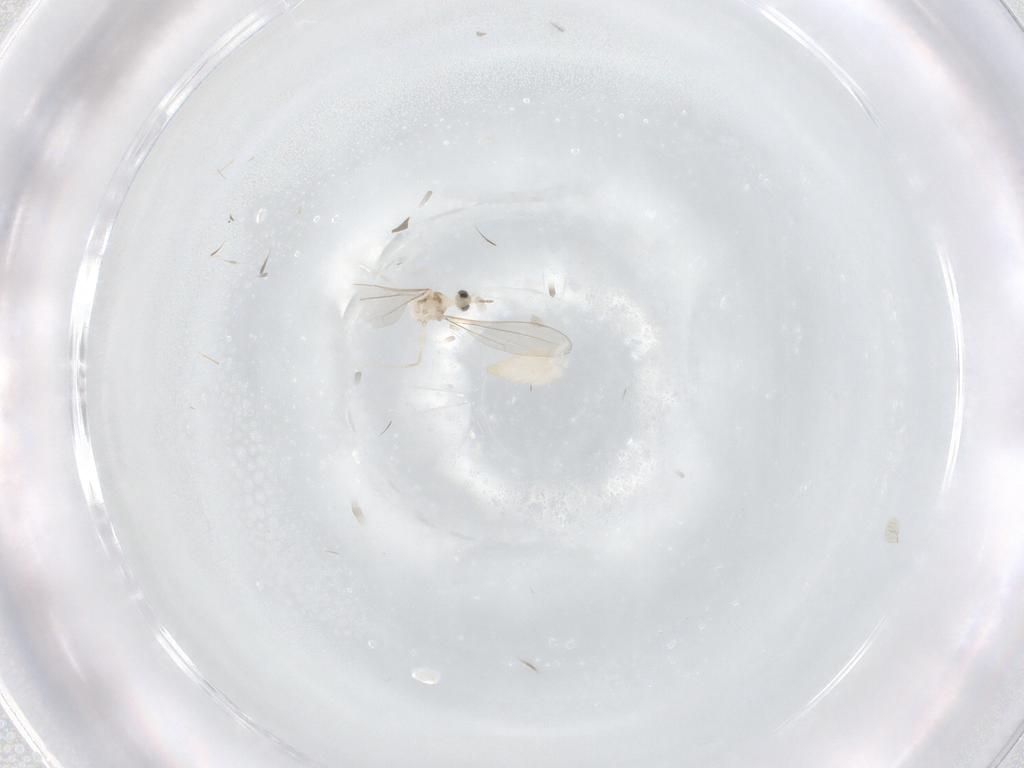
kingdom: Animalia
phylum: Arthropoda
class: Insecta
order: Diptera
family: Cecidomyiidae
